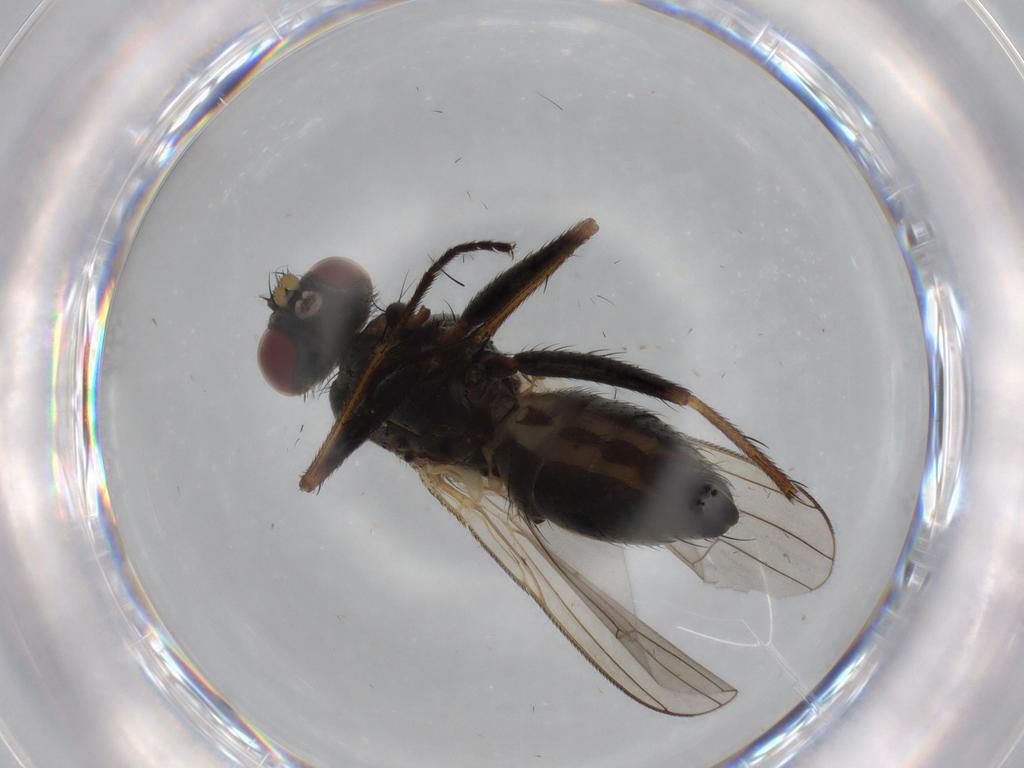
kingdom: Animalia
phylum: Arthropoda
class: Insecta
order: Diptera
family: Muscidae
